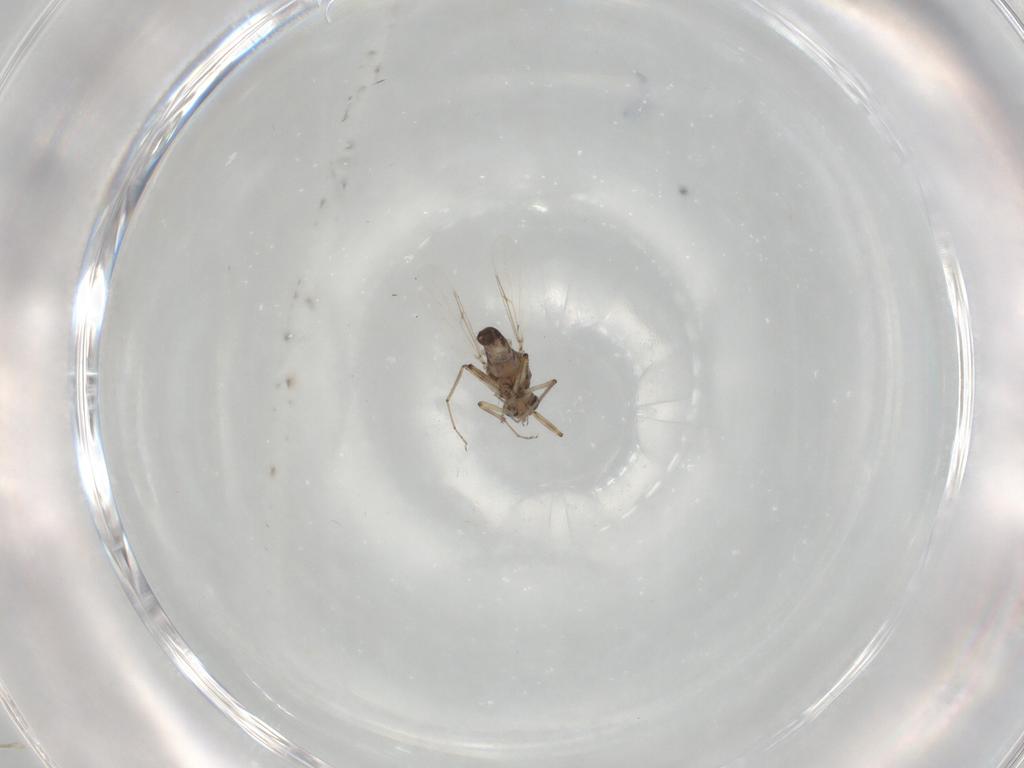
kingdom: Animalia
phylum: Arthropoda
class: Insecta
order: Diptera
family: Ceratopogonidae
